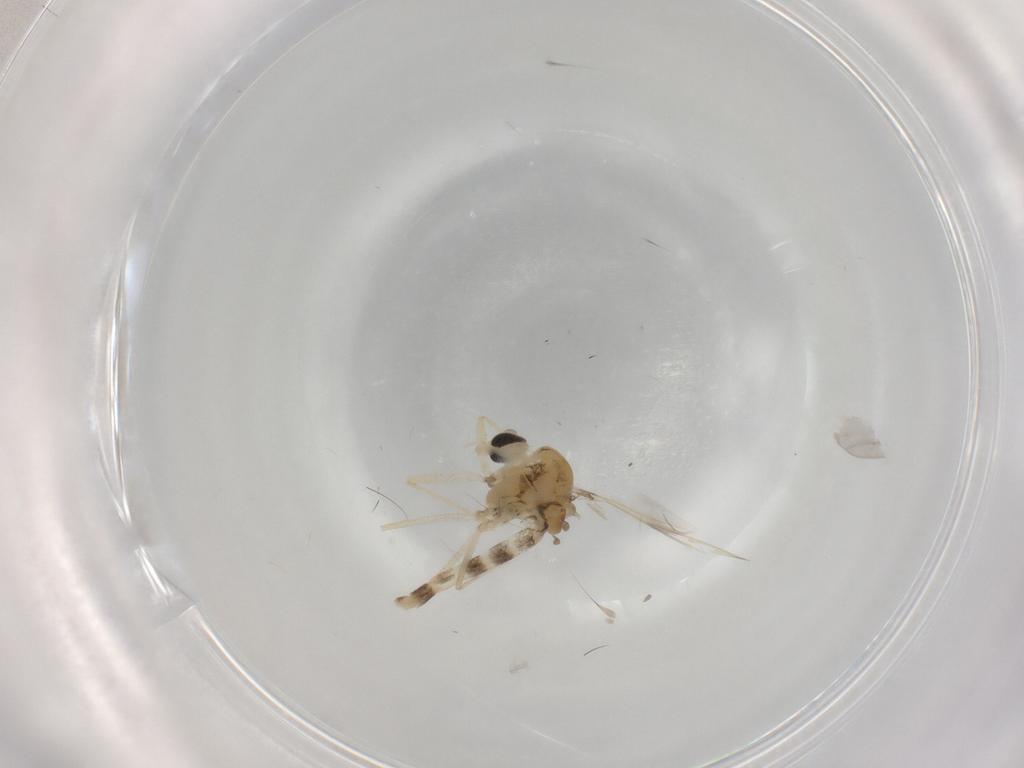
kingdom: Animalia
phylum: Arthropoda
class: Insecta
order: Diptera
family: Chironomidae
